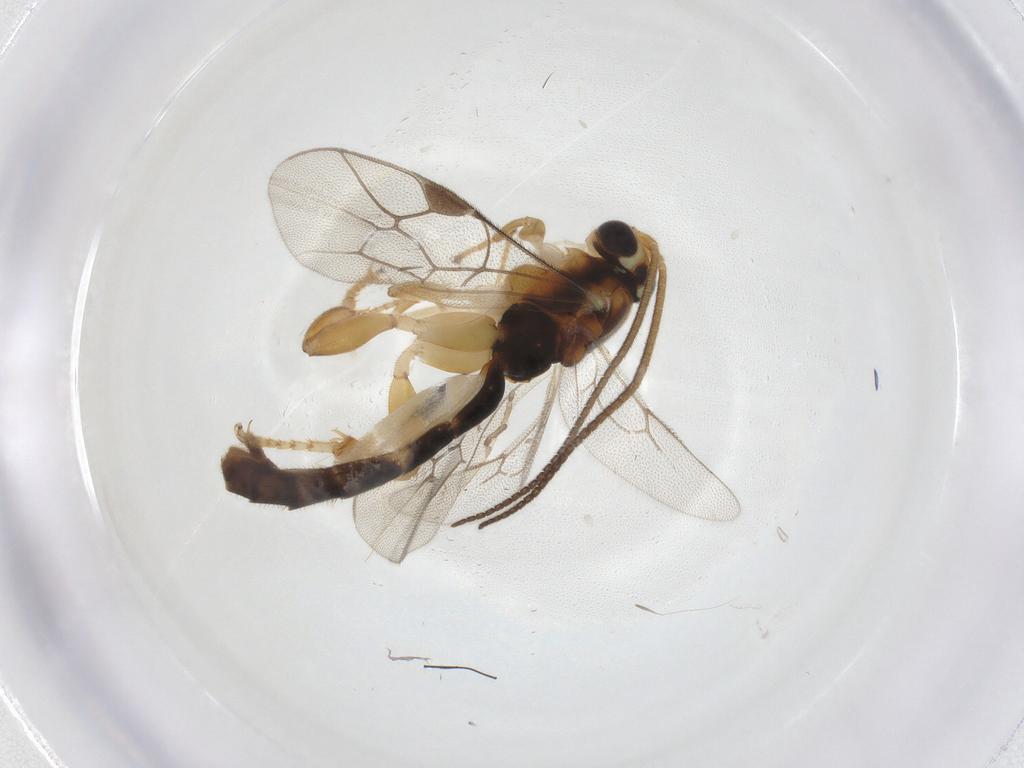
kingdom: Animalia
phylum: Arthropoda
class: Insecta
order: Hymenoptera
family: Ichneumonidae
